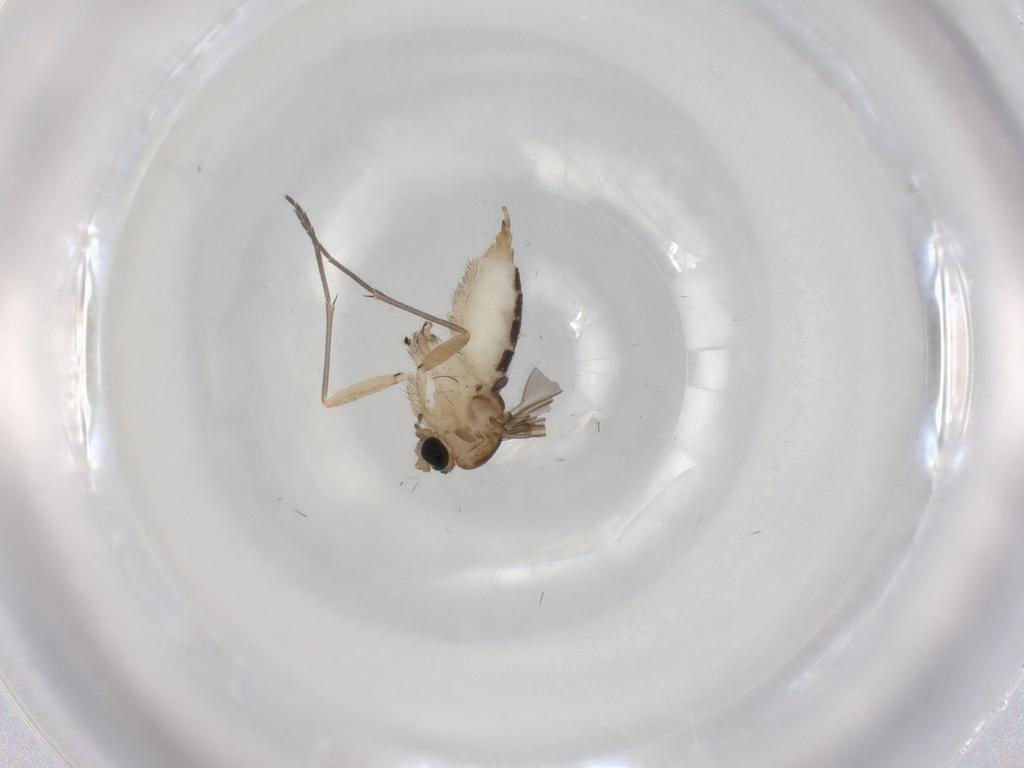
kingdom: Animalia
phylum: Arthropoda
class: Insecta
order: Diptera
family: Sciaridae
